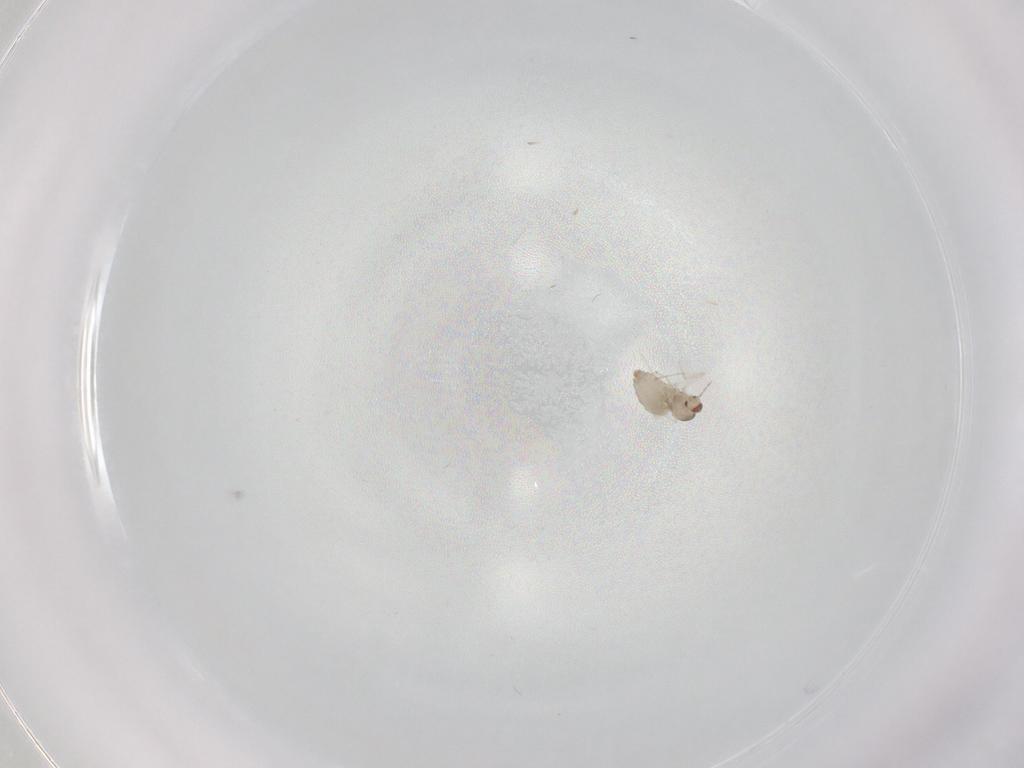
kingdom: Animalia
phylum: Arthropoda
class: Insecta
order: Diptera
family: Cecidomyiidae
